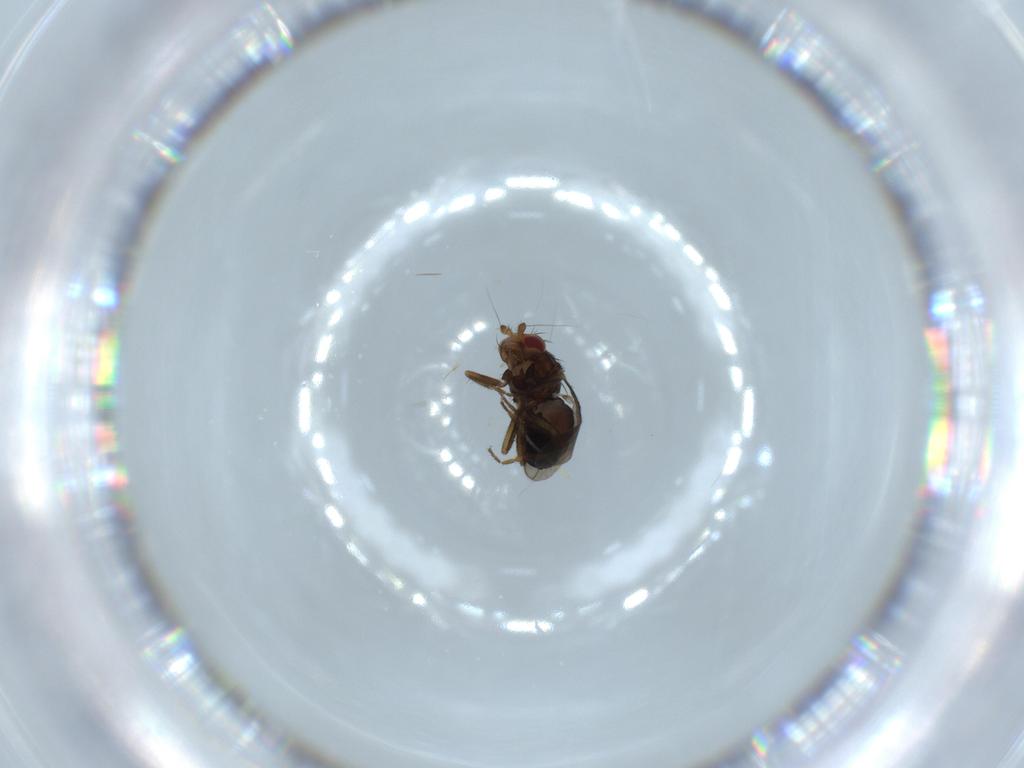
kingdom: Animalia
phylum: Arthropoda
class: Insecta
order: Diptera
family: Sphaeroceridae
